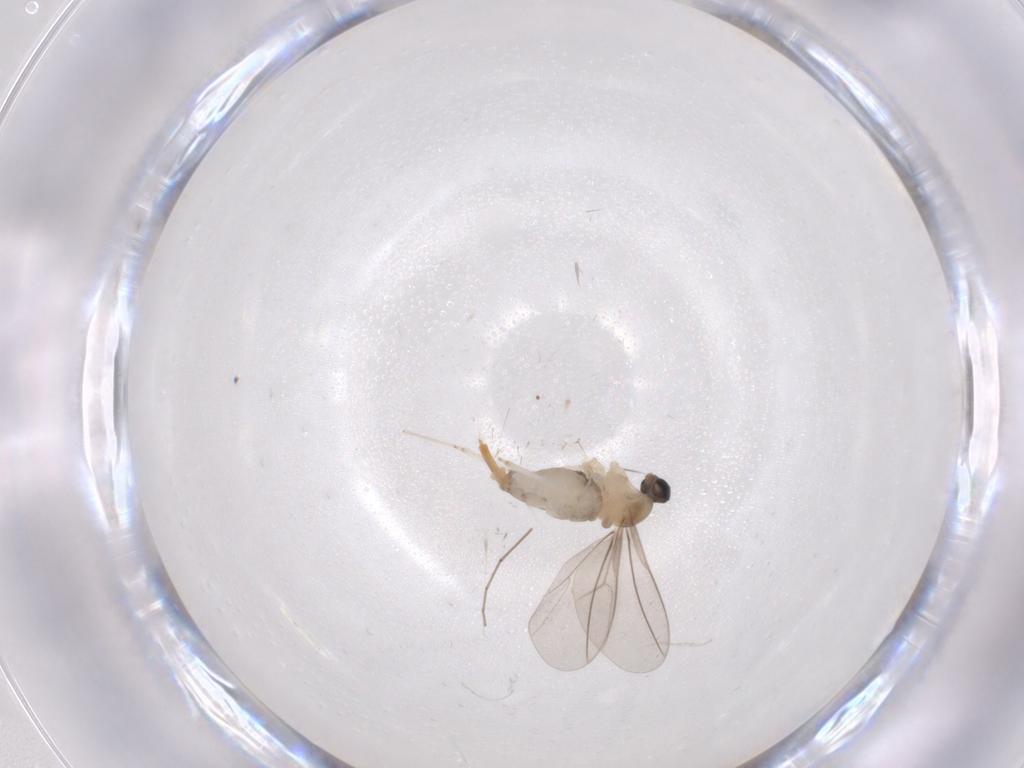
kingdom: Animalia
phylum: Arthropoda
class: Insecta
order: Diptera
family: Cecidomyiidae
